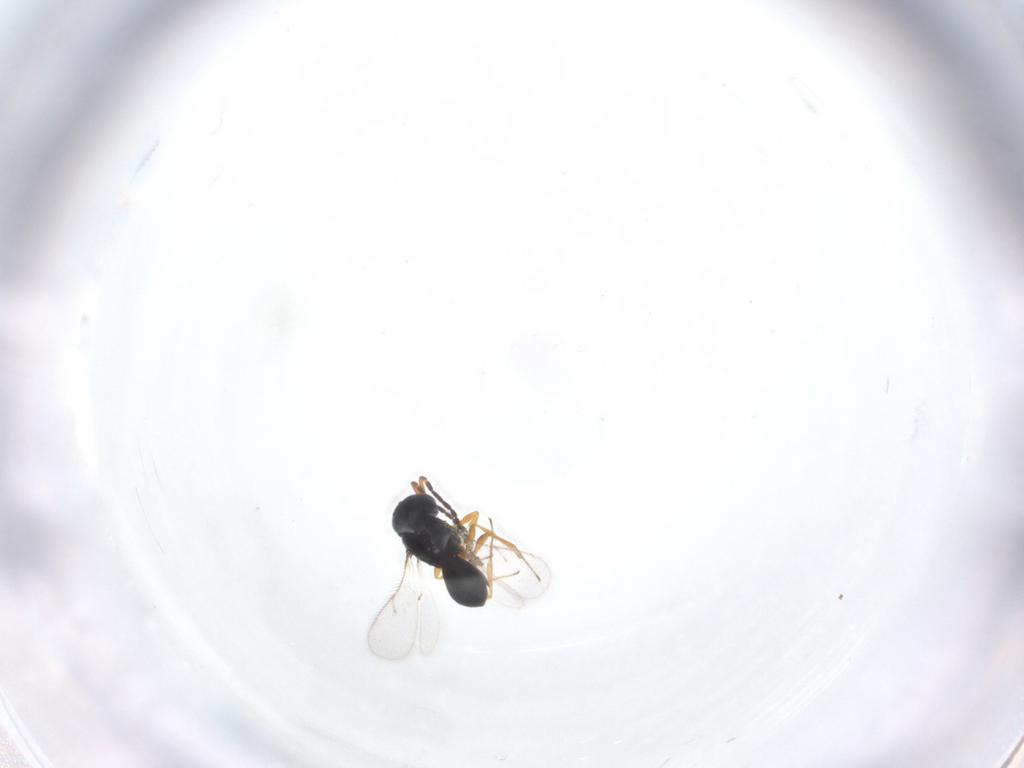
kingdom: Animalia
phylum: Arthropoda
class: Insecta
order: Hymenoptera
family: Scelionidae
